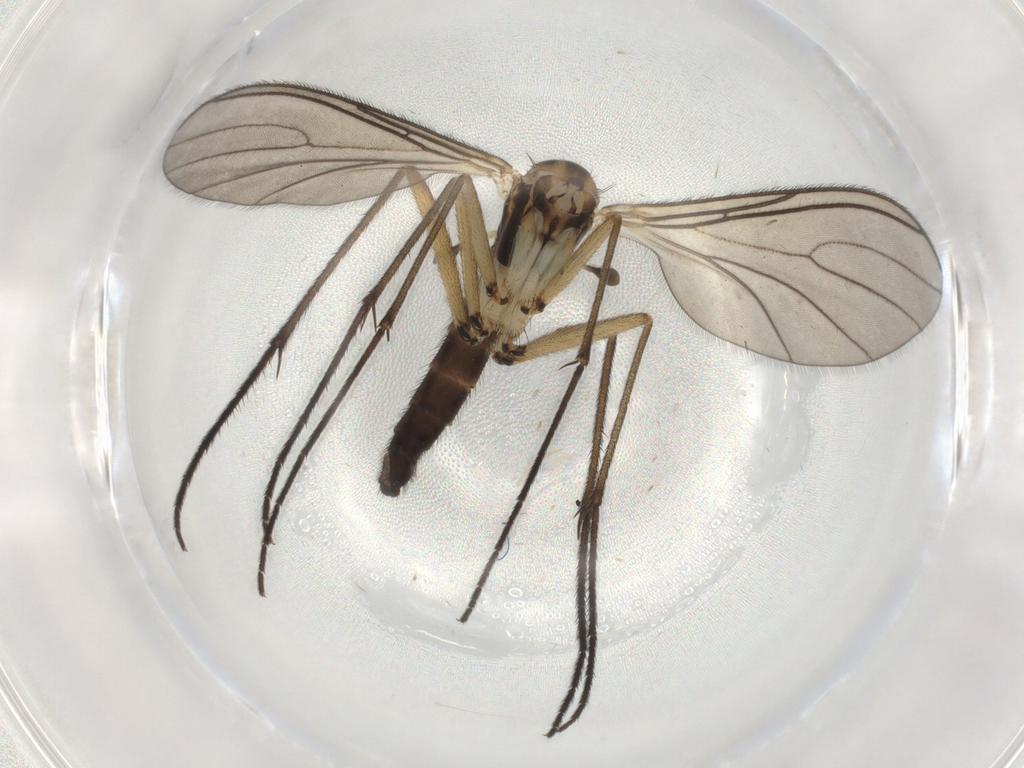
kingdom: Animalia
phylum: Arthropoda
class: Insecta
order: Diptera
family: Sciaridae
